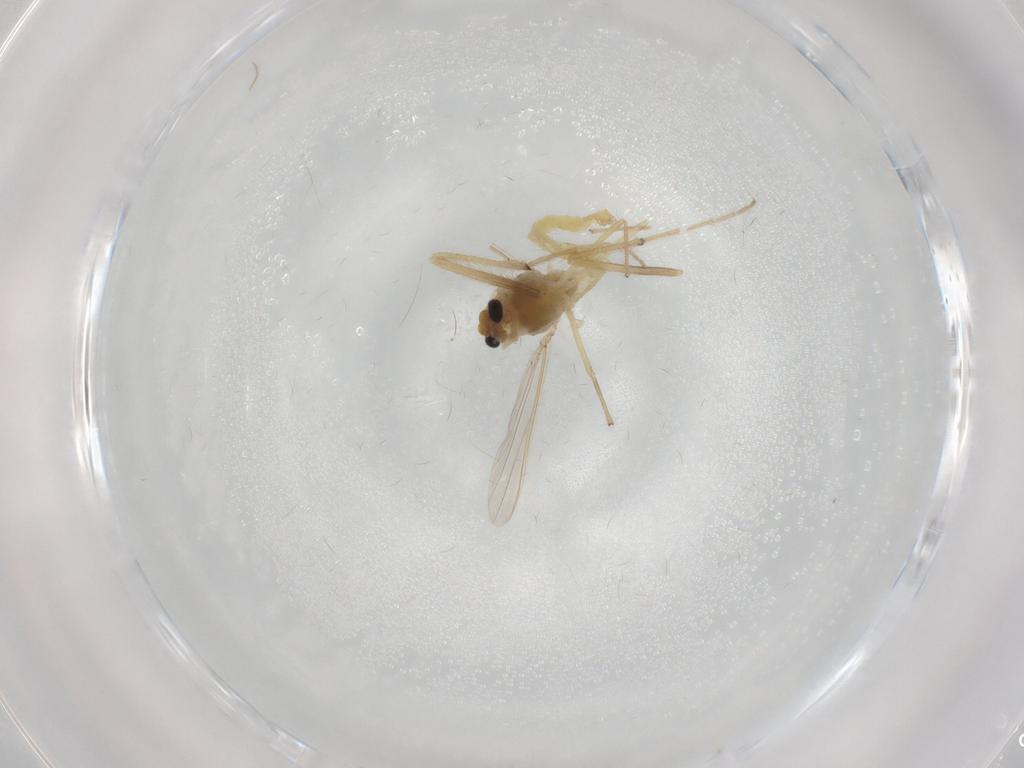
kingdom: Animalia
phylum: Arthropoda
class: Insecta
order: Diptera
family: Chironomidae
